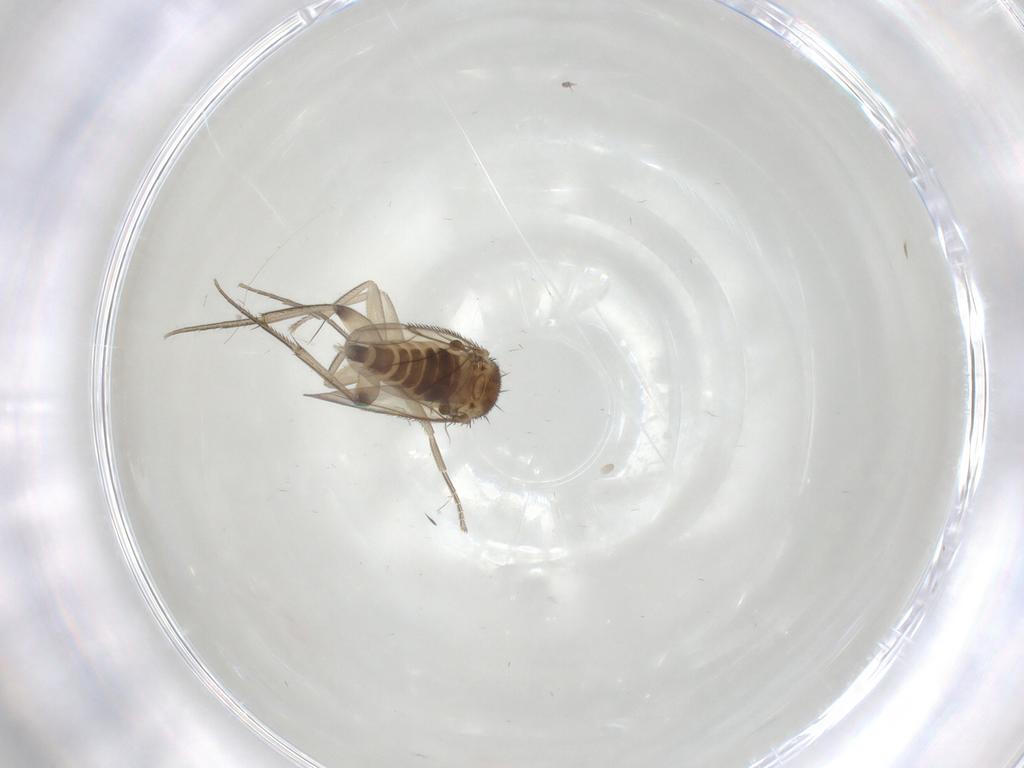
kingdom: Animalia
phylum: Arthropoda
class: Insecta
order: Diptera
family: Phoridae
